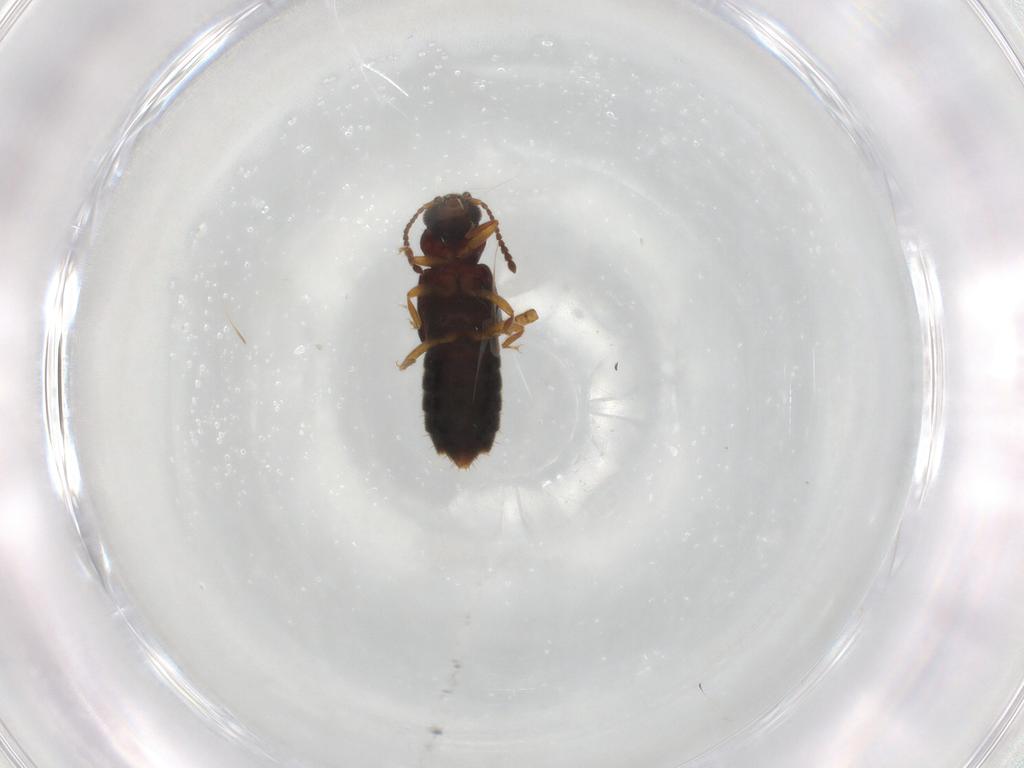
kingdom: Animalia
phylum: Arthropoda
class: Insecta
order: Coleoptera
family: Staphylinidae
